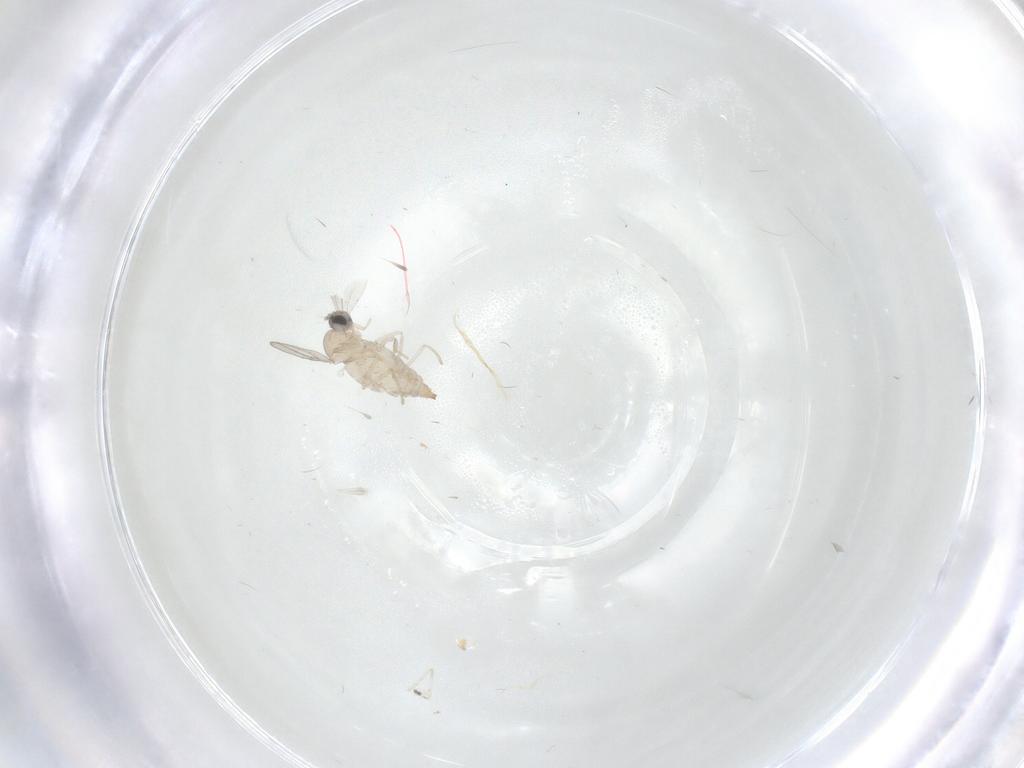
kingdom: Animalia
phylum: Arthropoda
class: Insecta
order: Diptera
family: Cecidomyiidae
